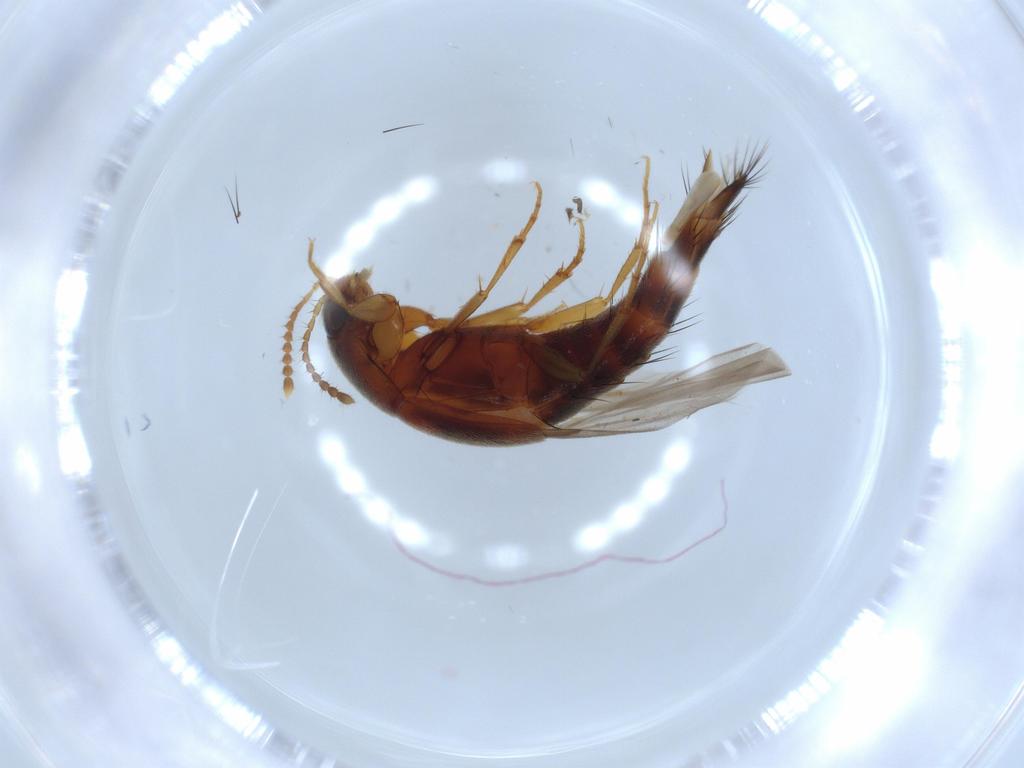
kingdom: Animalia
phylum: Arthropoda
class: Insecta
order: Coleoptera
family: Staphylinidae
